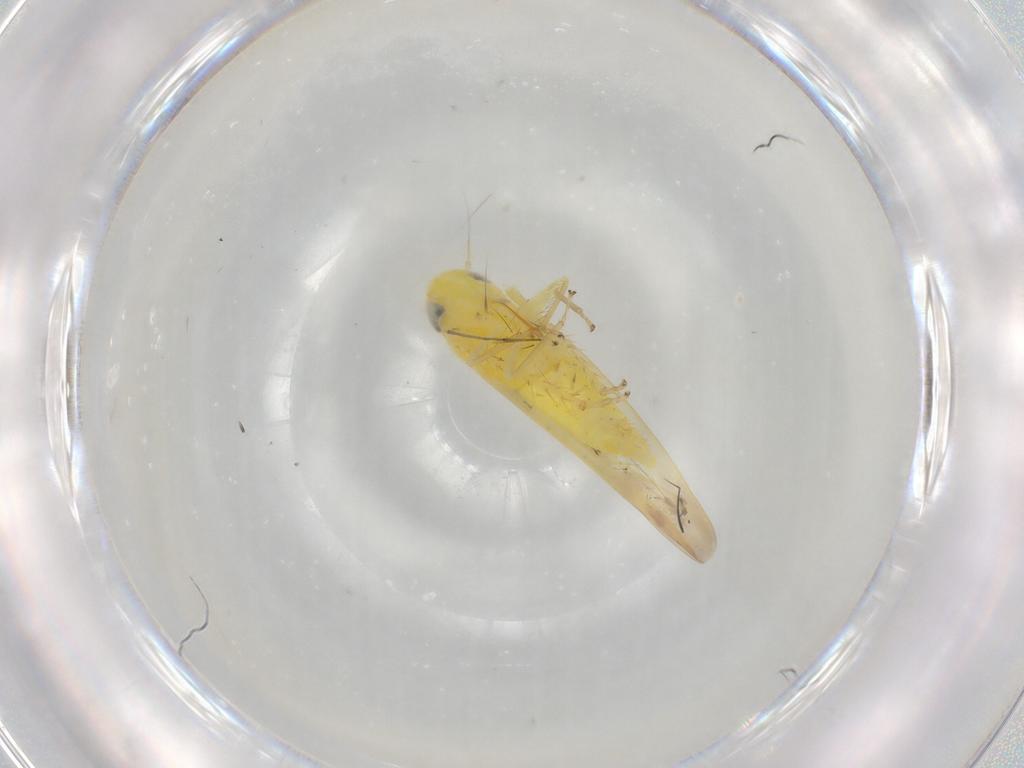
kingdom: Animalia
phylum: Arthropoda
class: Insecta
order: Hemiptera
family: Cicadellidae
